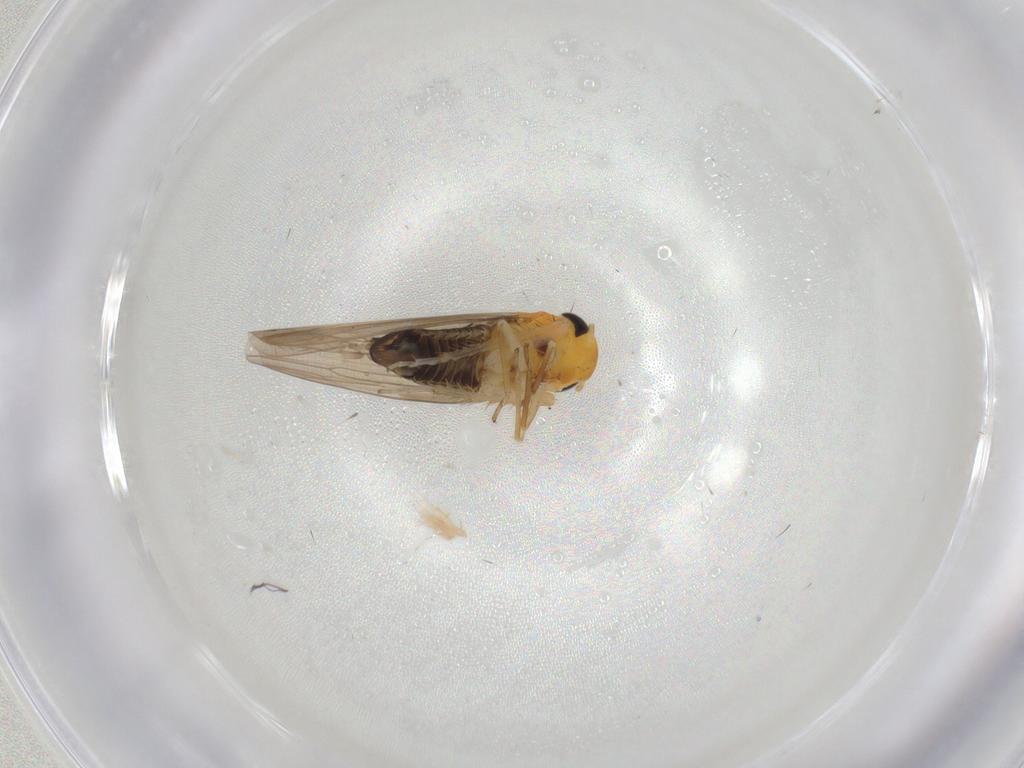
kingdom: Animalia
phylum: Arthropoda
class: Insecta
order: Hemiptera
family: Cicadellidae
